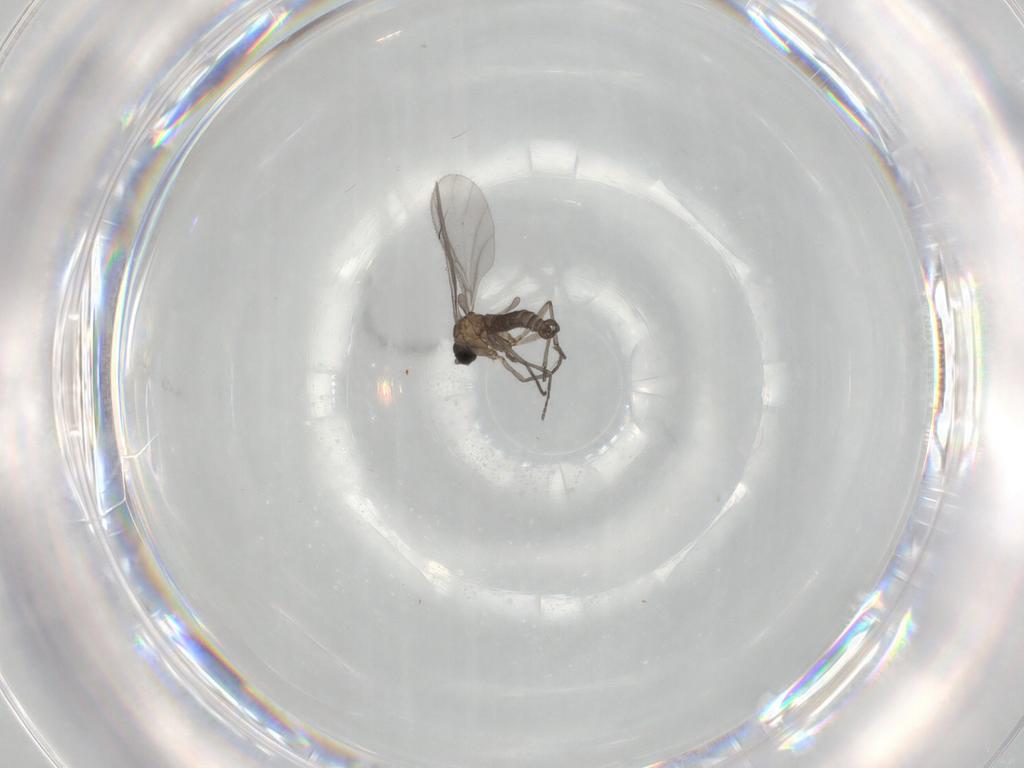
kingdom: Animalia
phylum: Arthropoda
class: Insecta
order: Diptera
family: Sciaridae
